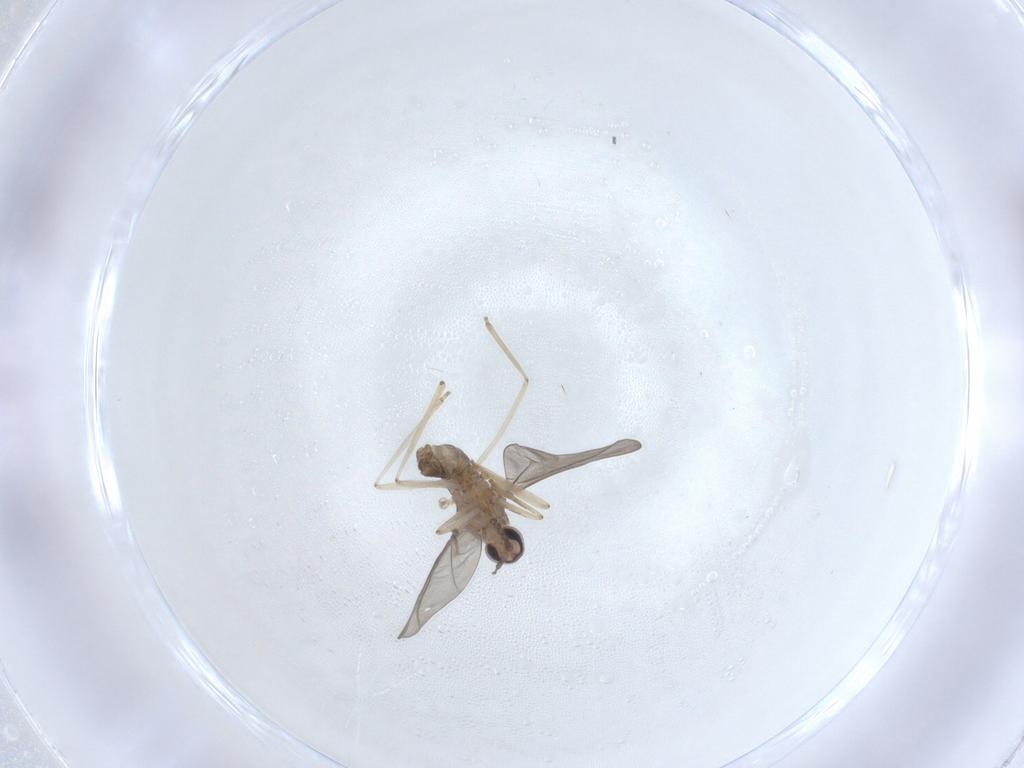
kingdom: Animalia
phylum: Arthropoda
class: Insecta
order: Diptera
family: Cecidomyiidae
